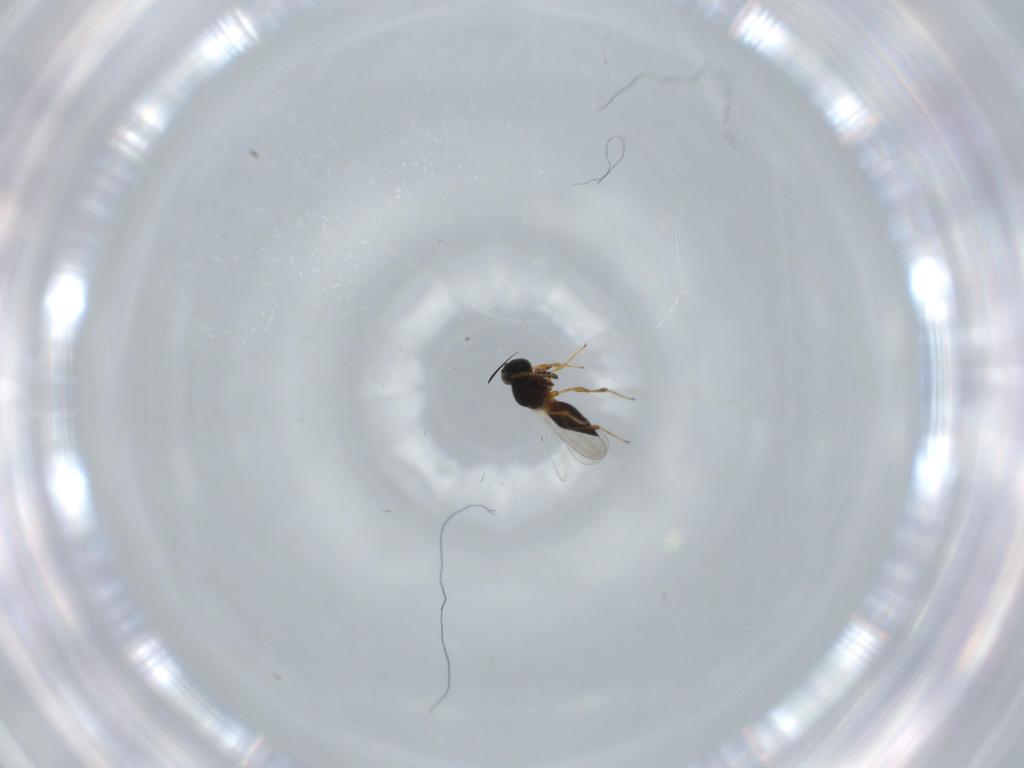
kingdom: Animalia
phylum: Arthropoda
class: Insecta
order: Hymenoptera
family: Platygastridae
